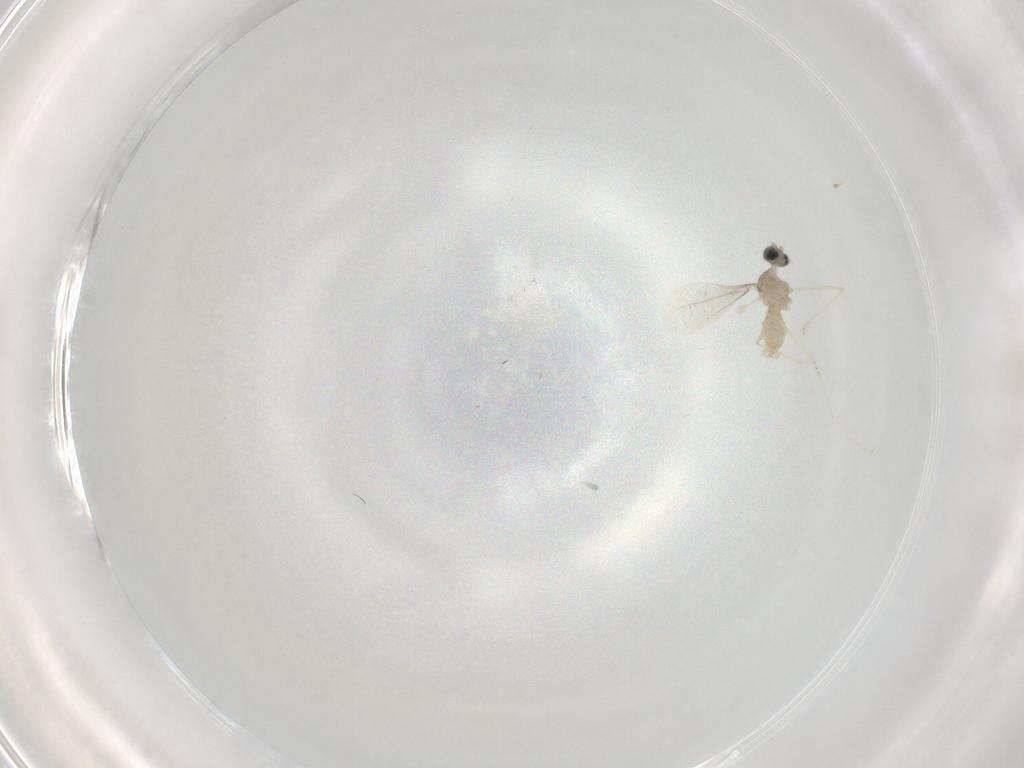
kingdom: Animalia
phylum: Arthropoda
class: Insecta
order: Diptera
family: Cecidomyiidae
